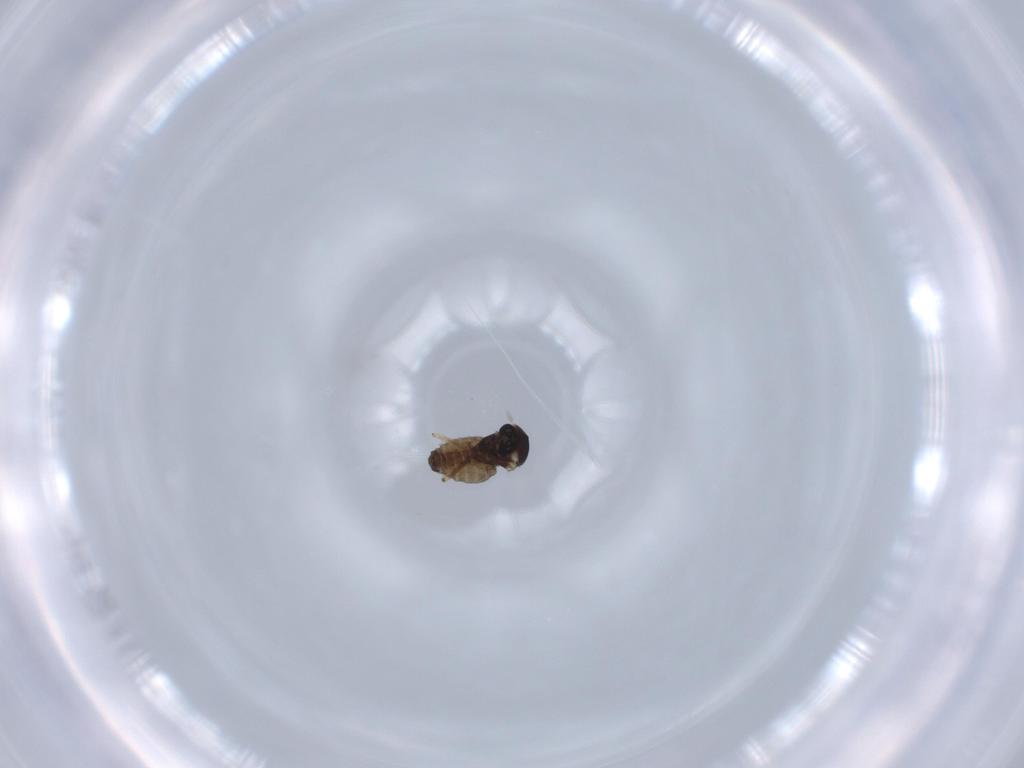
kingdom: Animalia
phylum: Arthropoda
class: Insecta
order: Diptera
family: Ceratopogonidae
